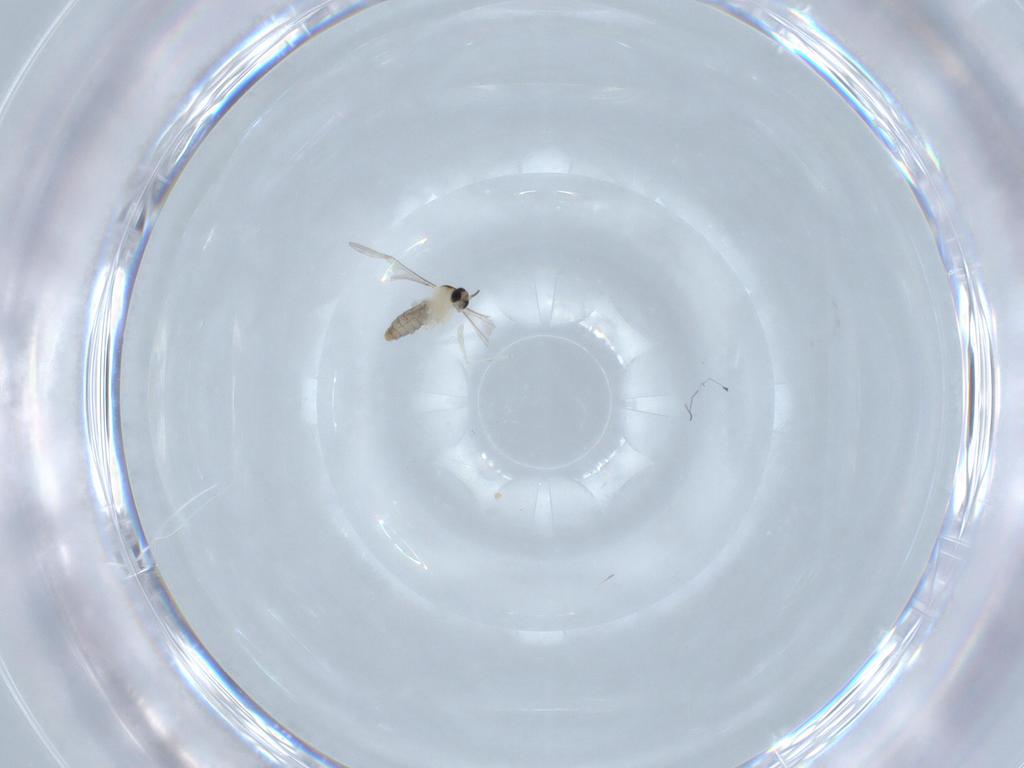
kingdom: Animalia
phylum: Arthropoda
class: Insecta
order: Diptera
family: Cecidomyiidae
